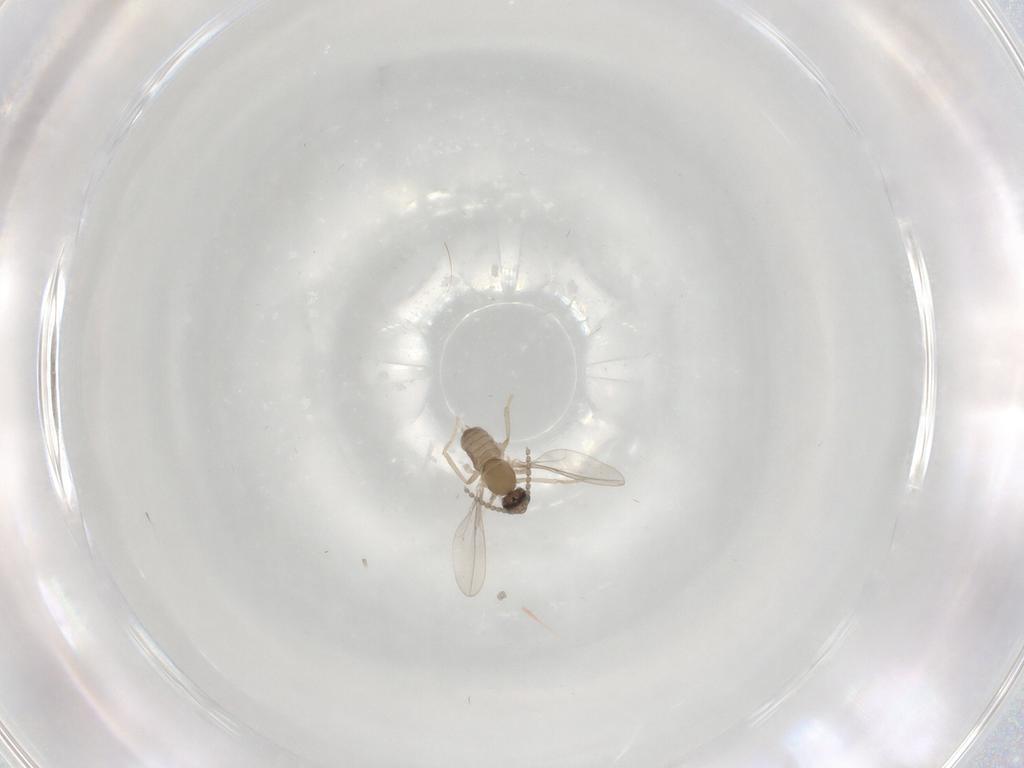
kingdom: Animalia
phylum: Arthropoda
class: Insecta
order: Diptera
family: Cecidomyiidae
